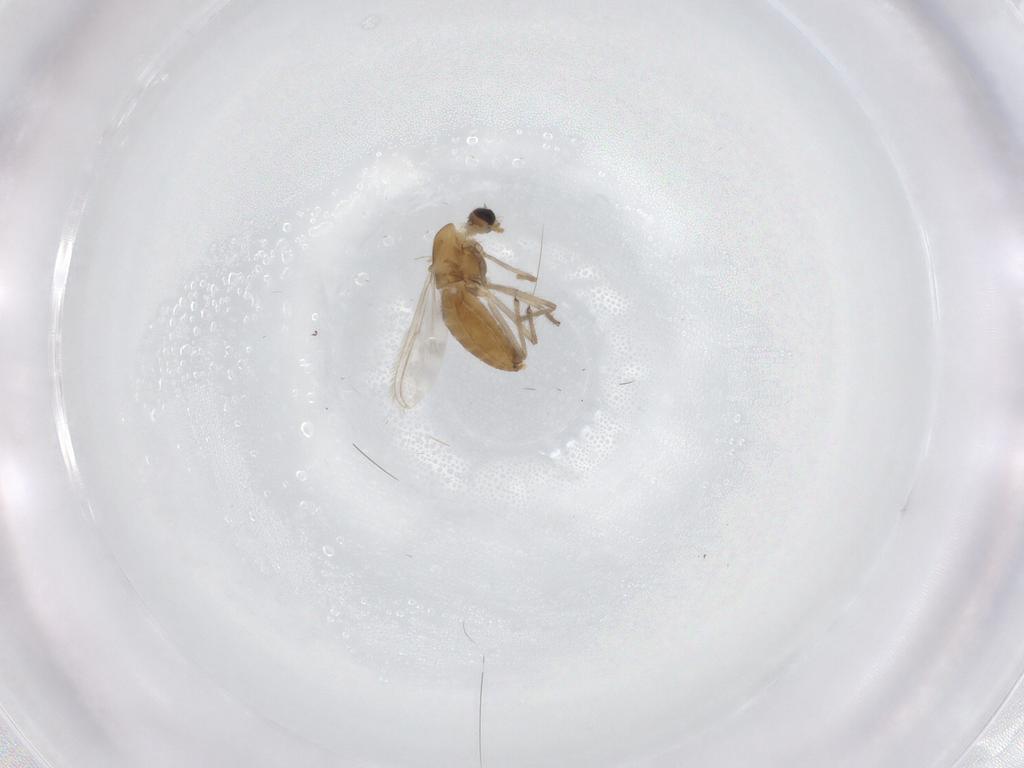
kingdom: Animalia
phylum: Arthropoda
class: Insecta
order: Diptera
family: Chironomidae
